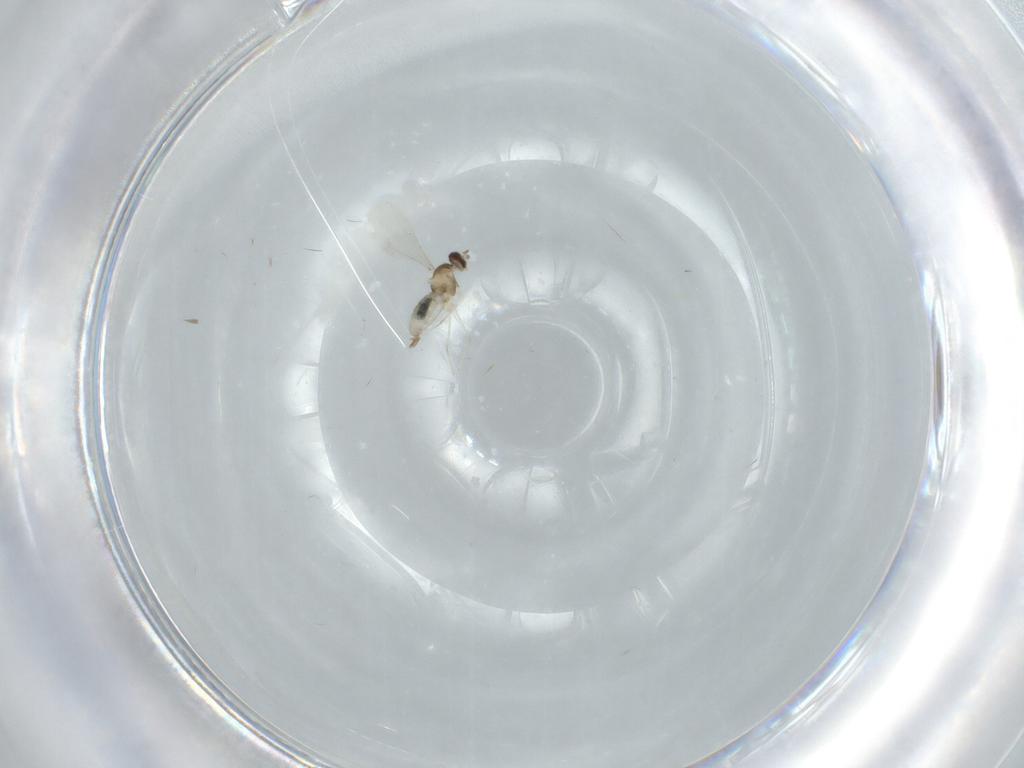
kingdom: Animalia
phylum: Arthropoda
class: Insecta
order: Diptera
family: Cecidomyiidae
